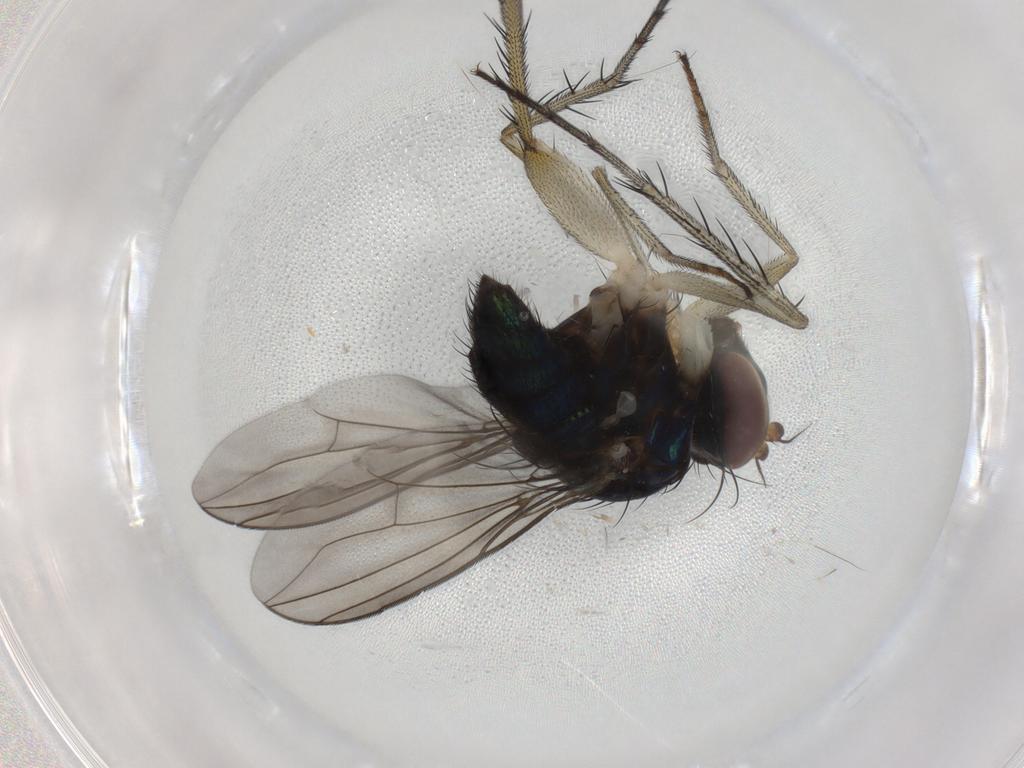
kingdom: Animalia
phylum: Arthropoda
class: Insecta
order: Diptera
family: Dolichopodidae
